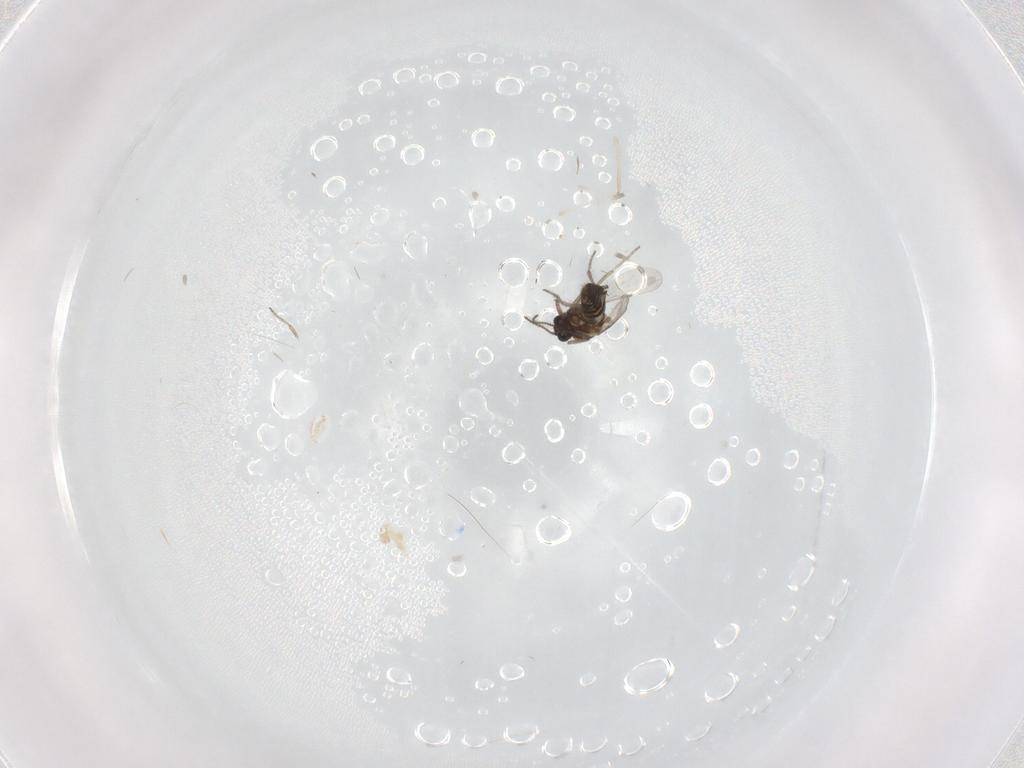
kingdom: Animalia
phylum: Arthropoda
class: Insecta
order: Diptera
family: Ceratopogonidae
